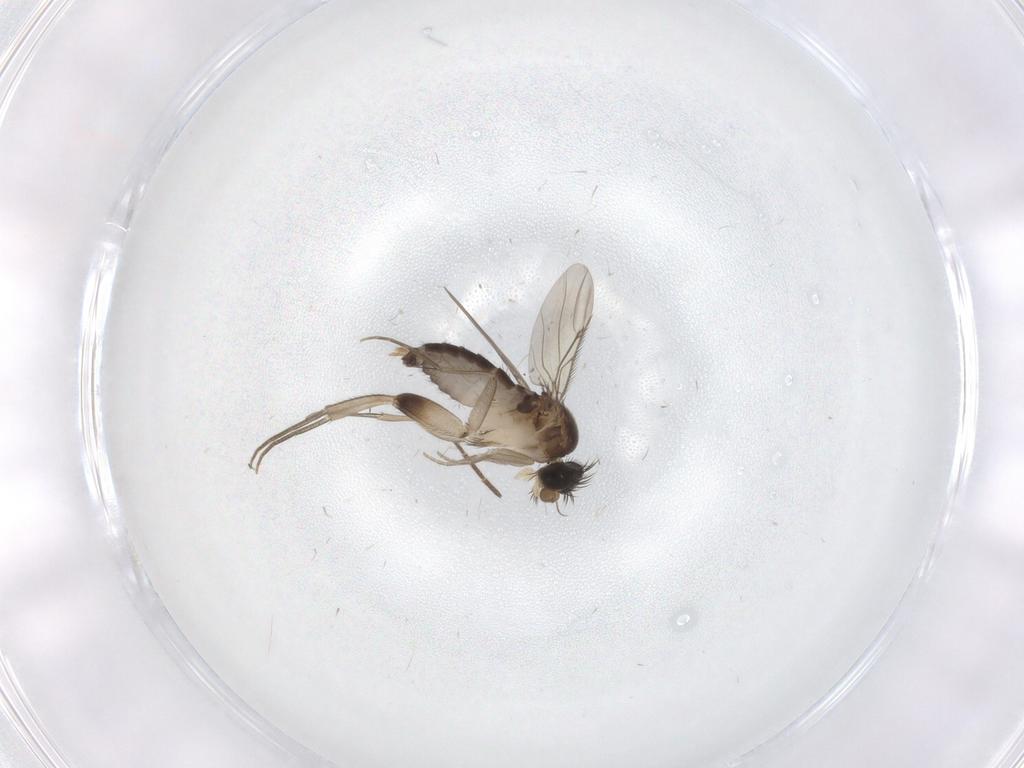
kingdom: Animalia
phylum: Arthropoda
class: Insecta
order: Diptera
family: Phoridae
